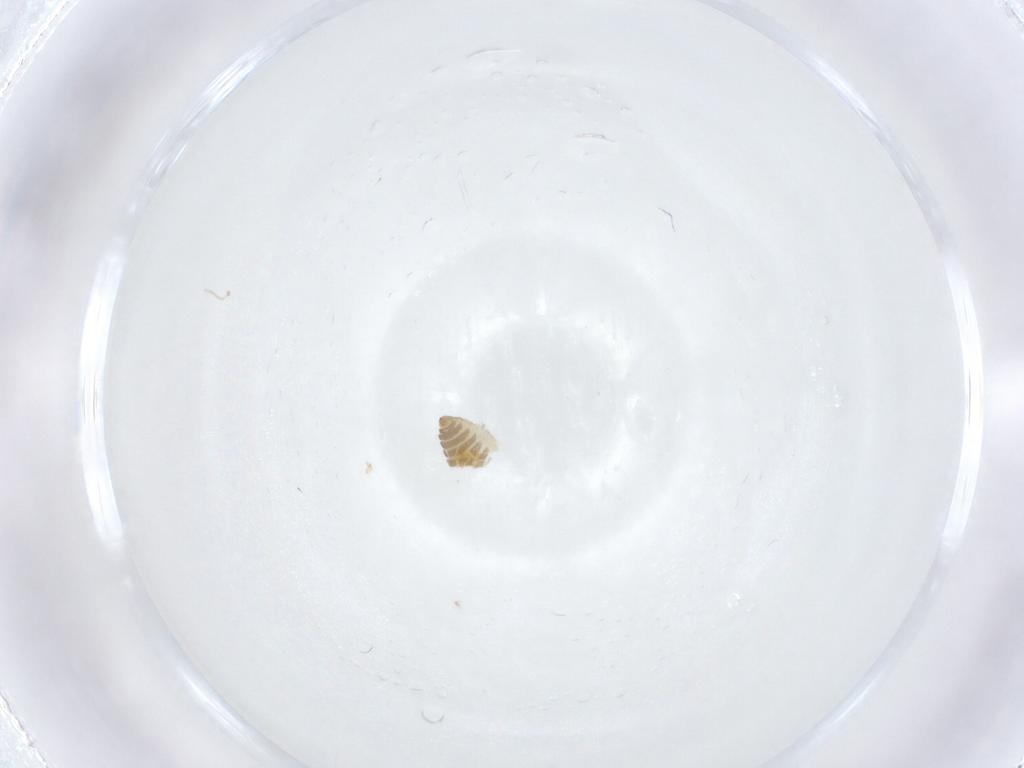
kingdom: Animalia
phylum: Arthropoda
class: Insecta
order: Diptera
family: Cecidomyiidae
